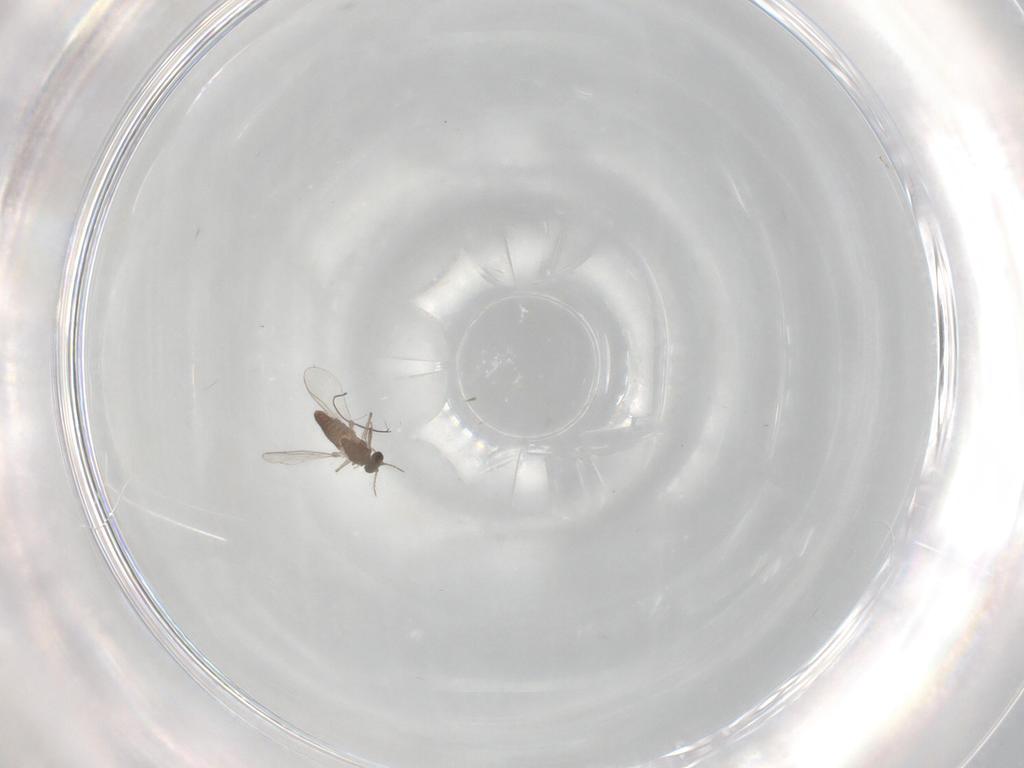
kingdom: Animalia
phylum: Arthropoda
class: Insecta
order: Diptera
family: Chironomidae
